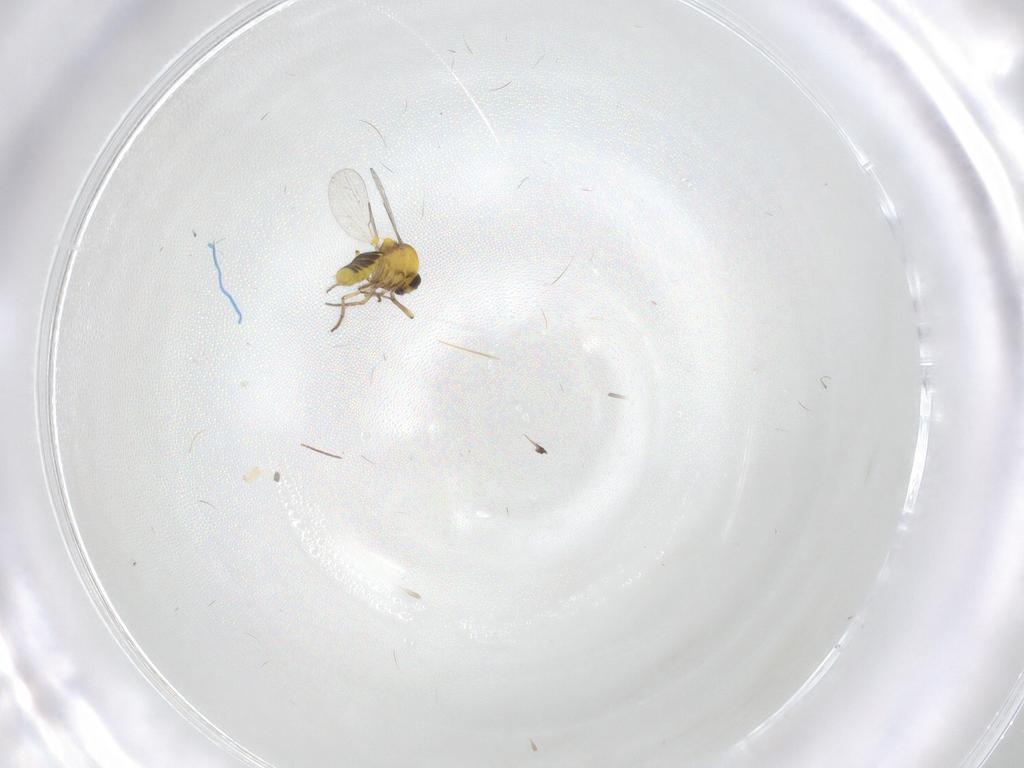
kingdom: Animalia
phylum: Arthropoda
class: Insecta
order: Diptera
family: Chironomidae
